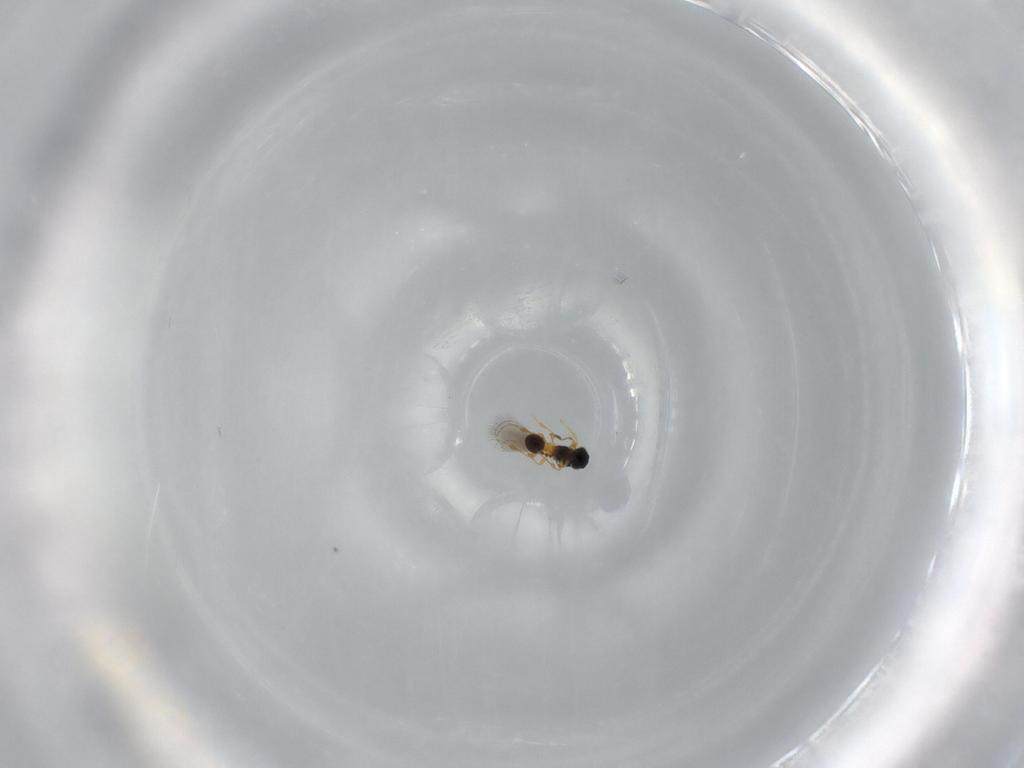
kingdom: Animalia
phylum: Arthropoda
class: Insecta
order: Hymenoptera
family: Platygastridae
